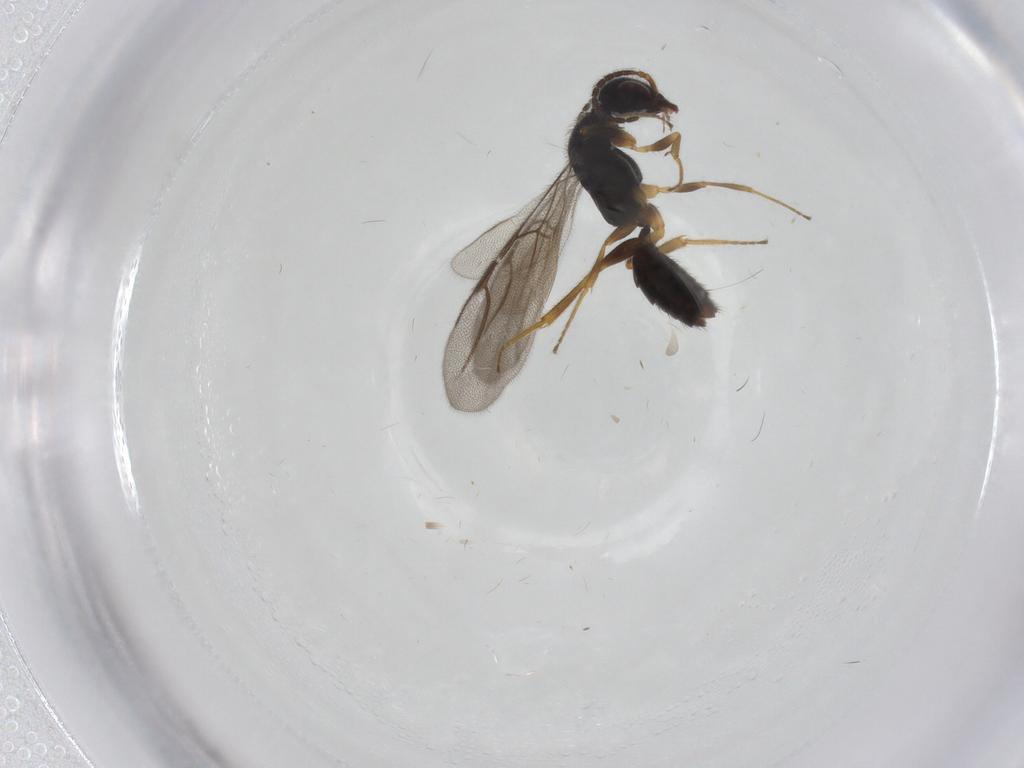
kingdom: Animalia
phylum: Arthropoda
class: Insecta
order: Hymenoptera
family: Bethylidae
